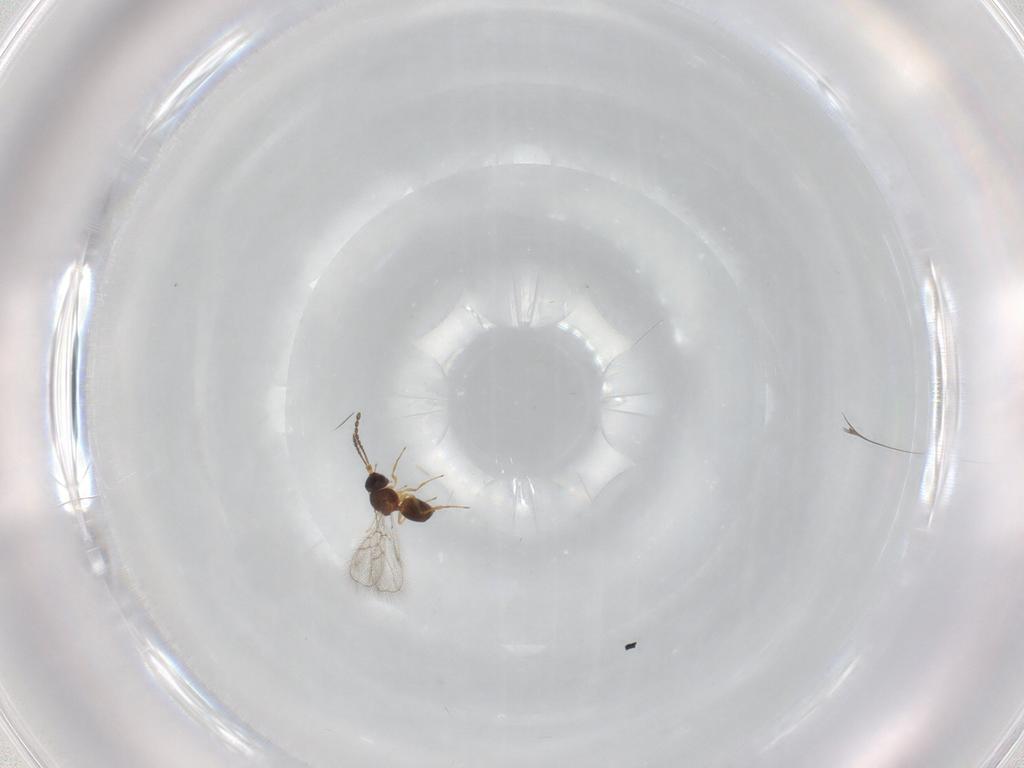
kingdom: Animalia
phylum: Arthropoda
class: Insecta
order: Hymenoptera
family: Figitidae
